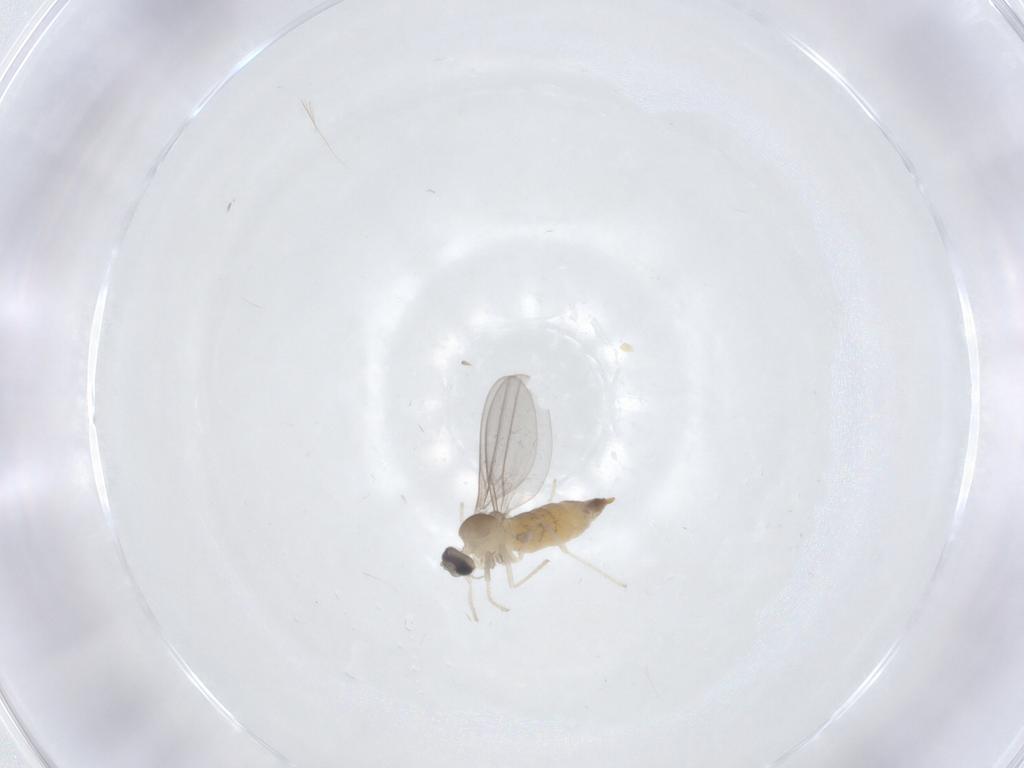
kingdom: Animalia
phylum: Arthropoda
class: Insecta
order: Diptera
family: Cecidomyiidae
